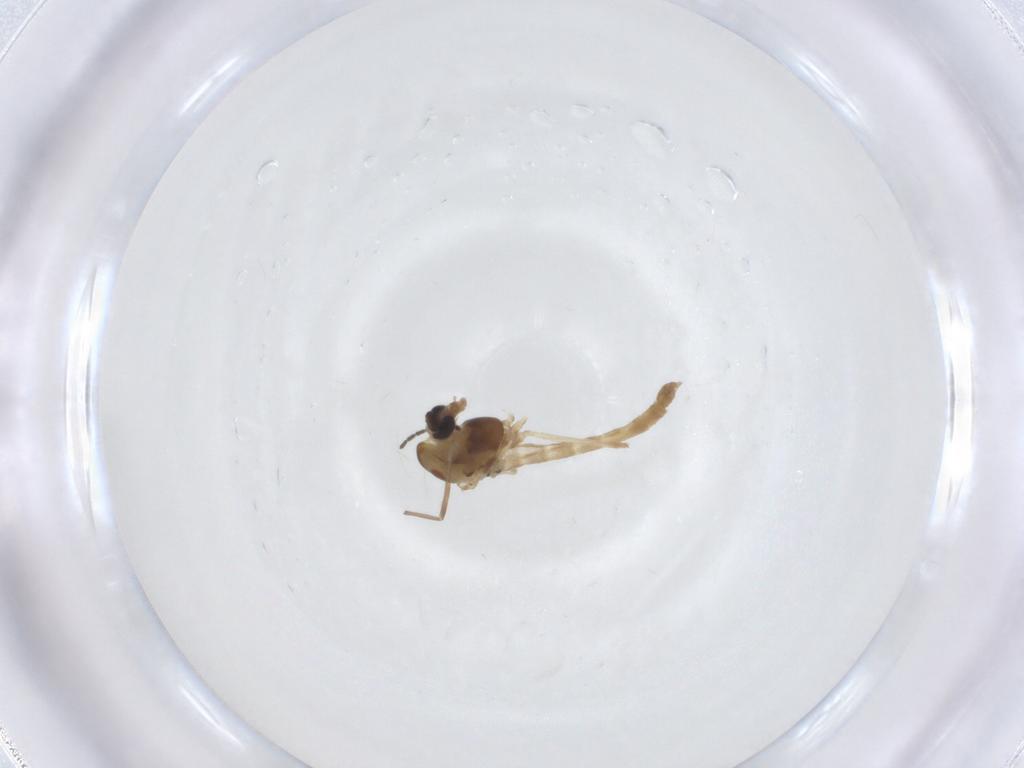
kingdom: Animalia
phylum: Arthropoda
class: Insecta
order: Diptera
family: Chironomidae
